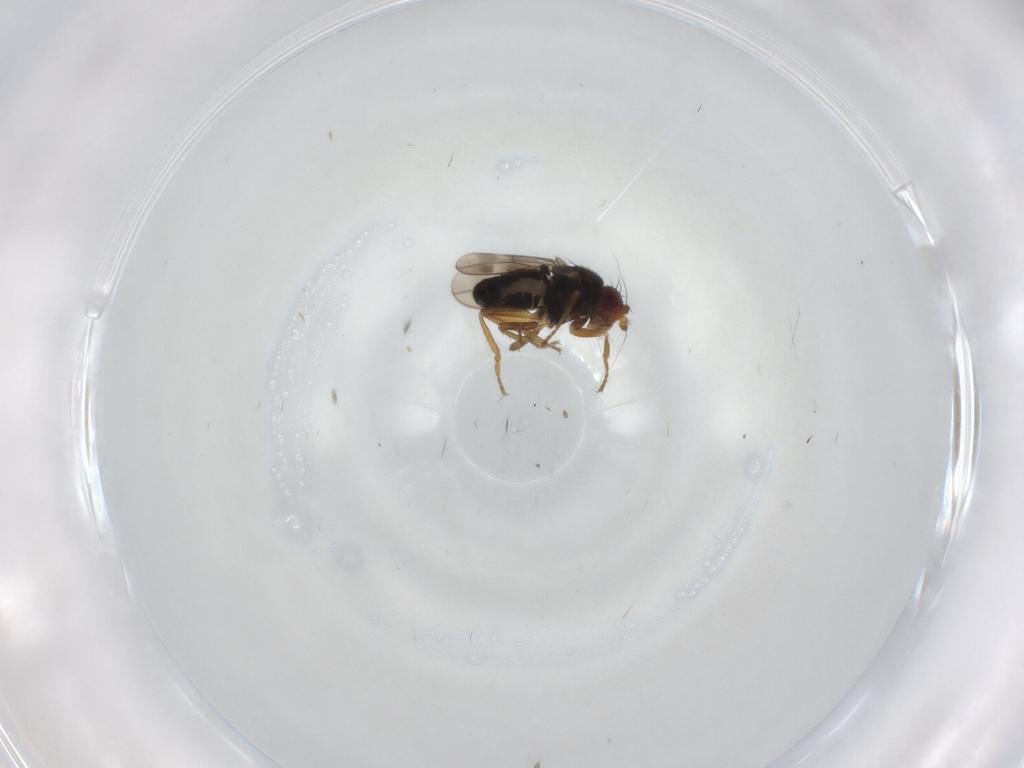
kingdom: Animalia
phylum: Arthropoda
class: Insecta
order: Diptera
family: Sphaeroceridae
